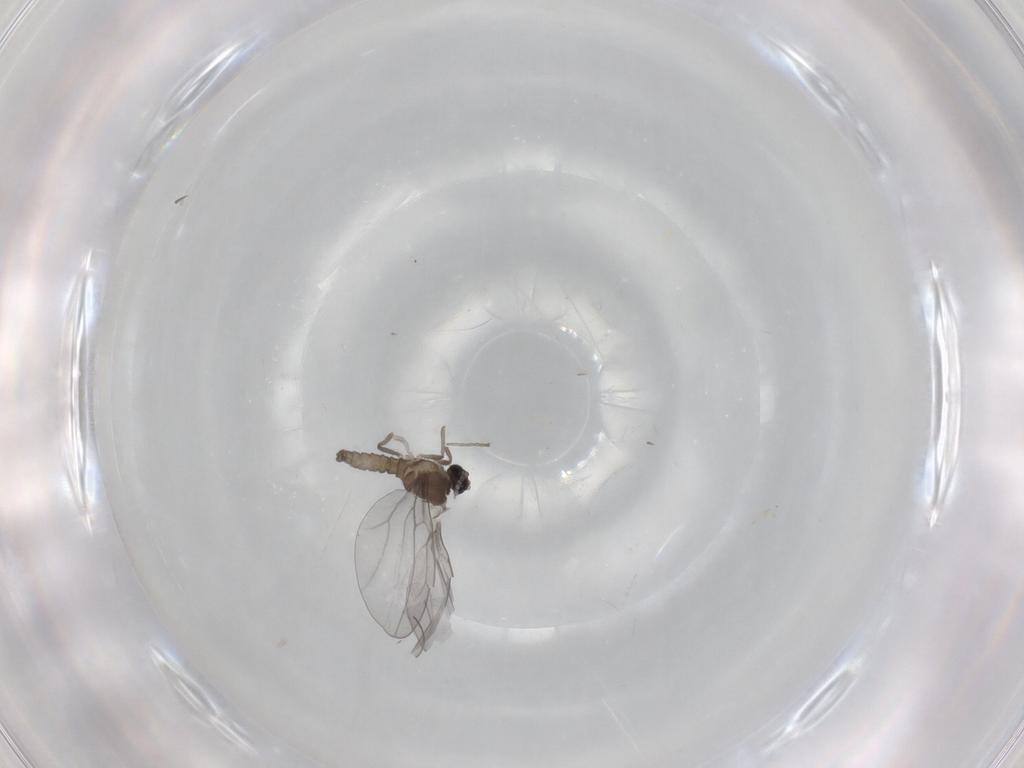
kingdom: Animalia
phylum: Arthropoda
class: Insecta
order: Diptera
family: Cecidomyiidae
